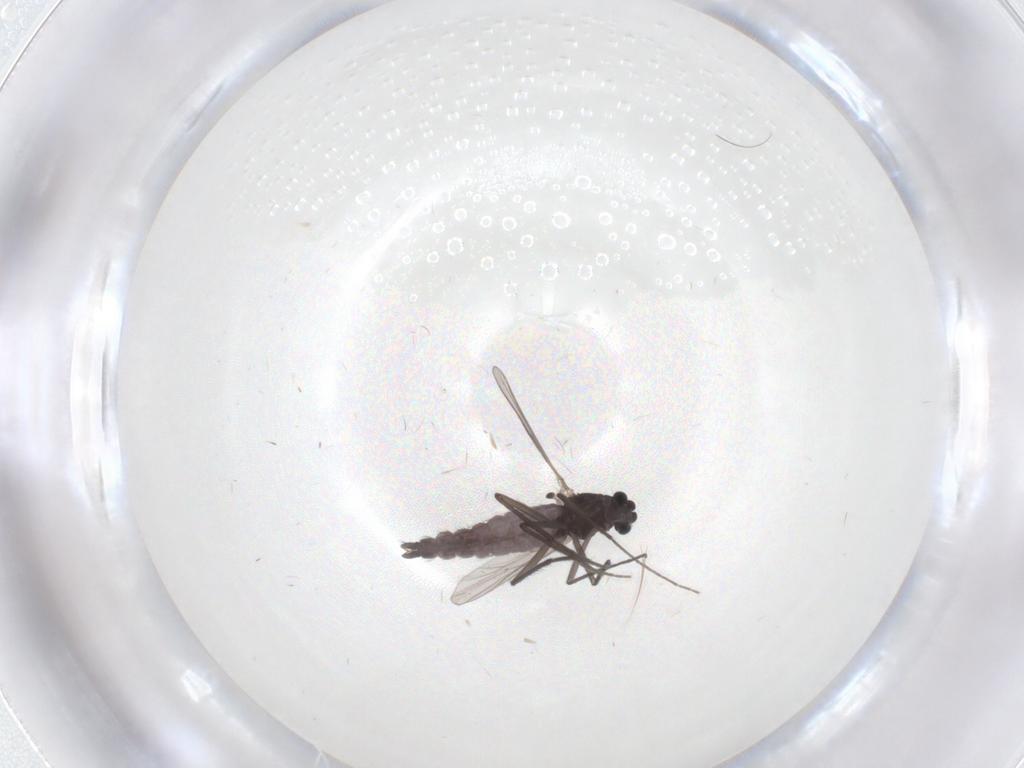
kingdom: Animalia
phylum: Arthropoda
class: Insecta
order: Diptera
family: Chironomidae
